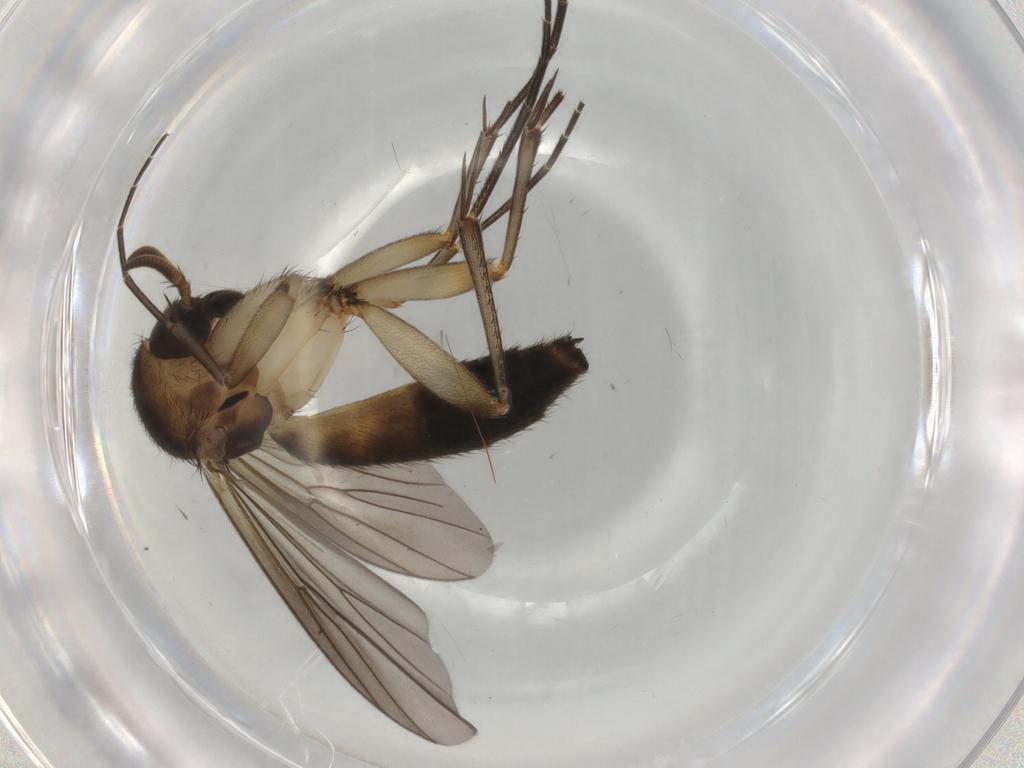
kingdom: Animalia
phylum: Arthropoda
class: Insecta
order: Diptera
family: Mycetophilidae
